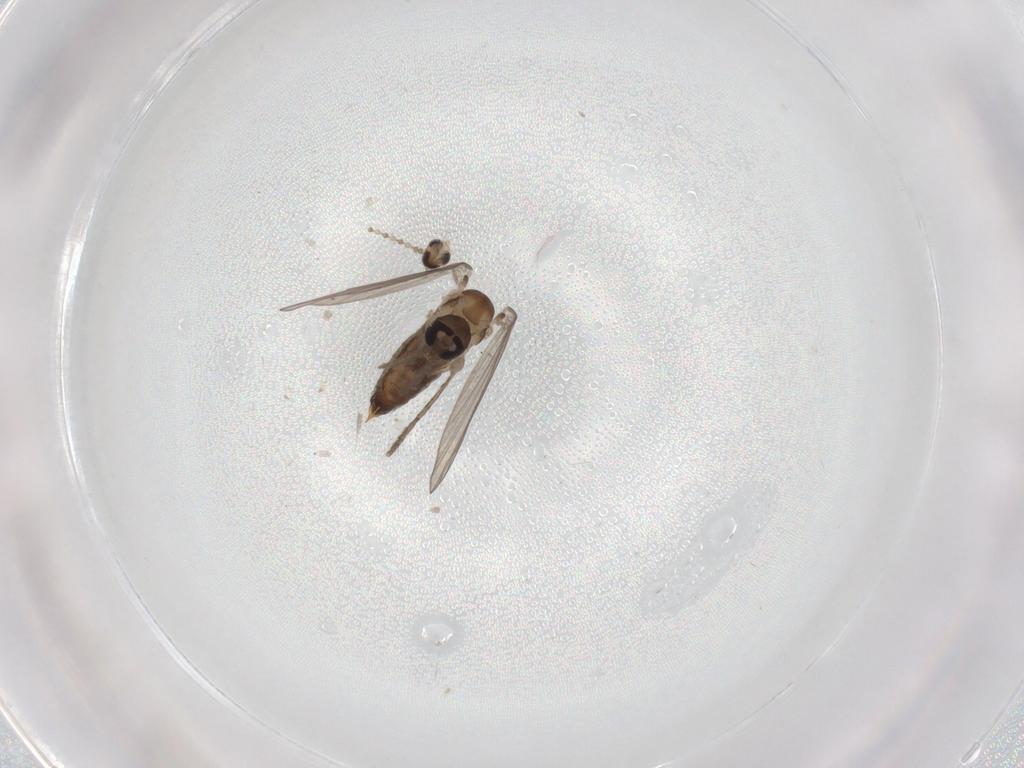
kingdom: Animalia
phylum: Arthropoda
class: Insecta
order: Diptera
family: Psychodidae
